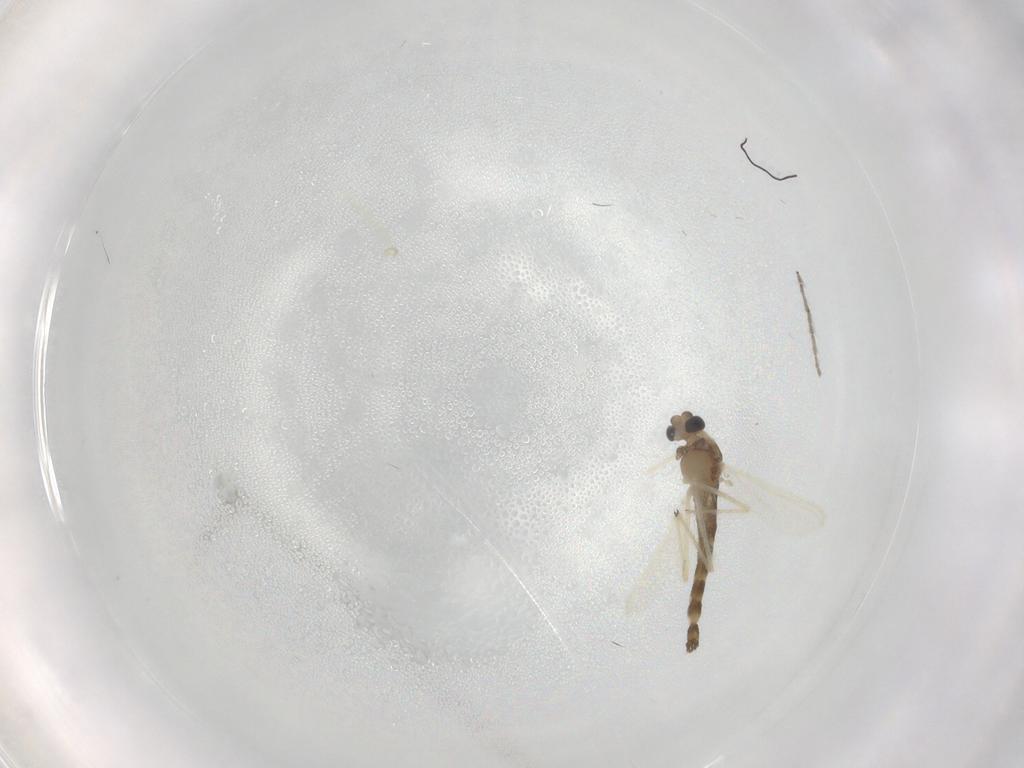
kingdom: Animalia
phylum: Arthropoda
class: Insecta
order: Diptera
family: Chironomidae
